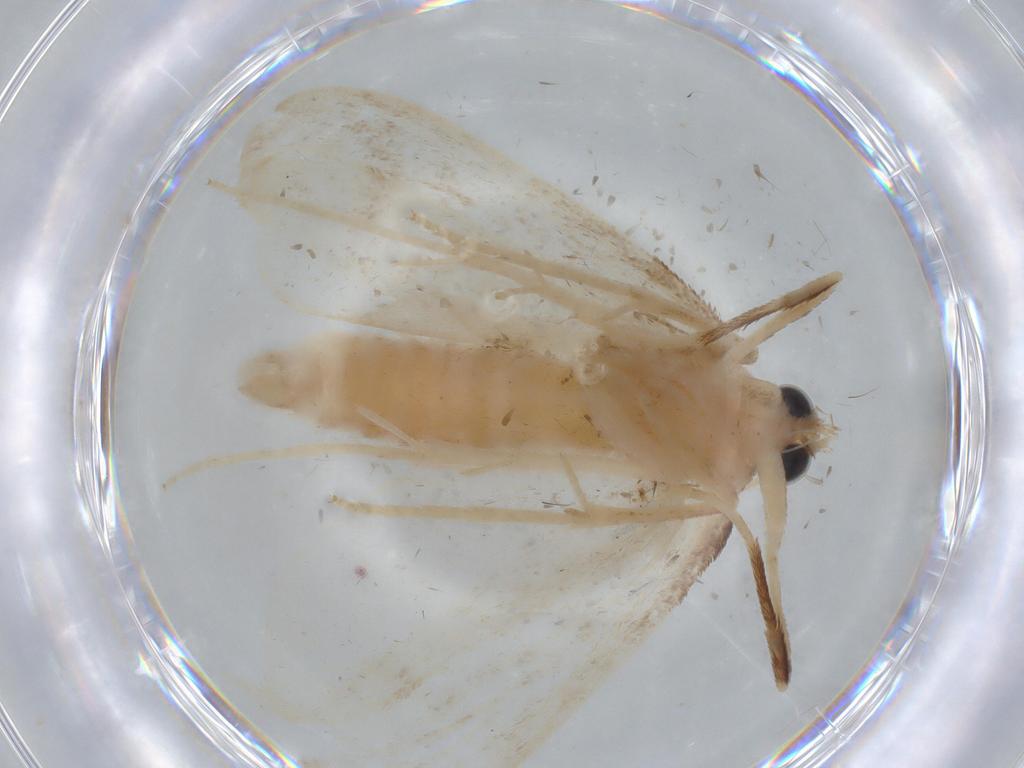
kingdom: Animalia
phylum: Arthropoda
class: Insecta
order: Lepidoptera
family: Crambidae
